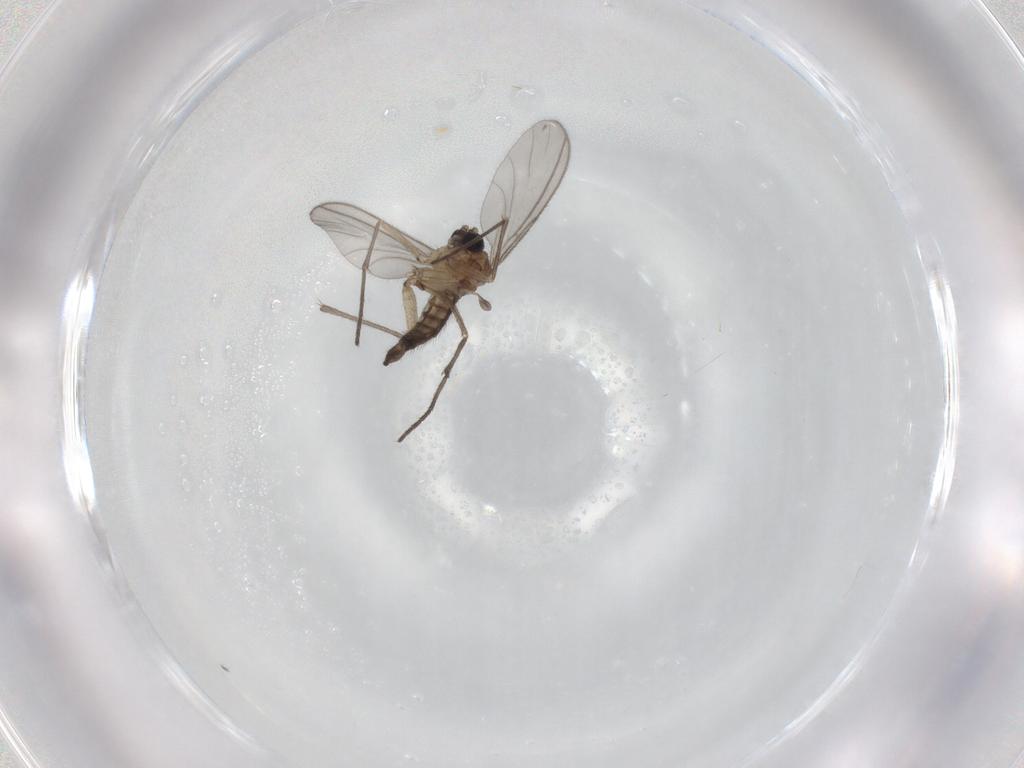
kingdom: Animalia
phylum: Arthropoda
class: Insecta
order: Diptera
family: Sciaridae
